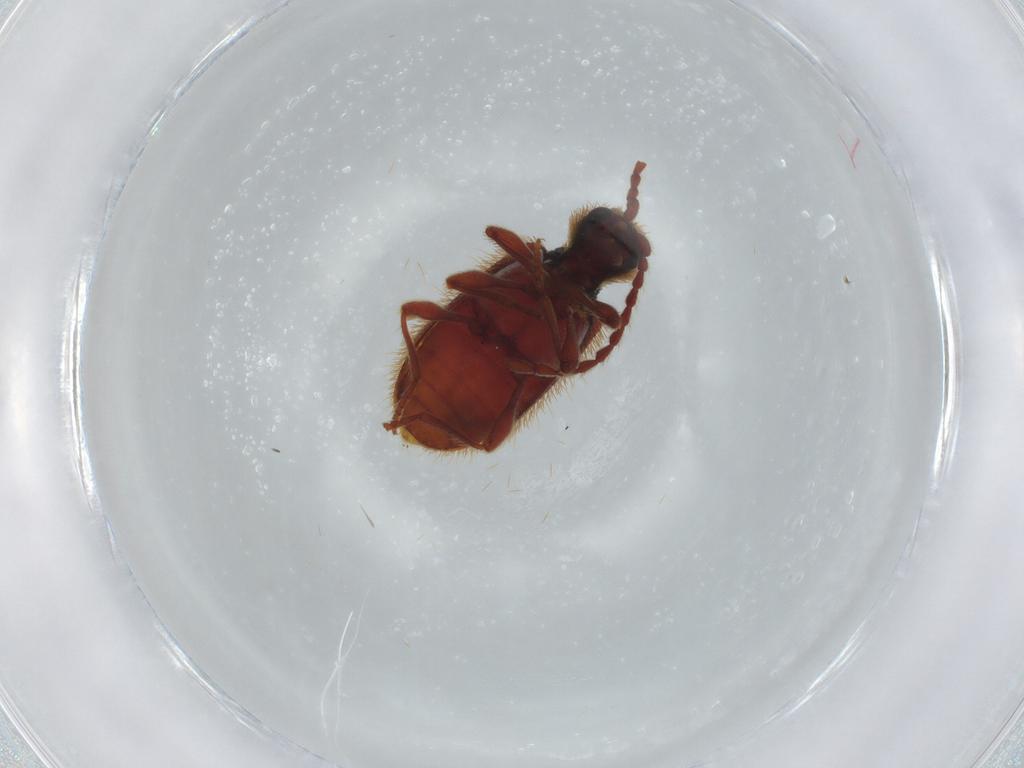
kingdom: Animalia
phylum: Arthropoda
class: Insecta
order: Coleoptera
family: Ptinidae
